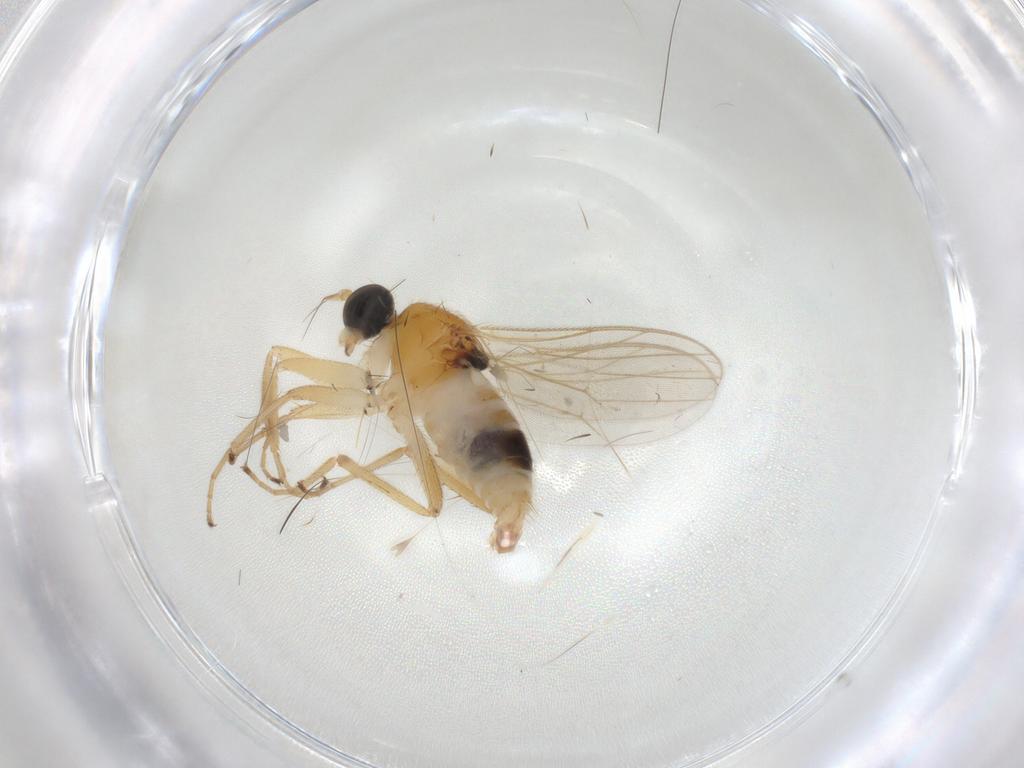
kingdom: Animalia
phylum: Arthropoda
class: Insecta
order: Diptera
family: Hybotidae
